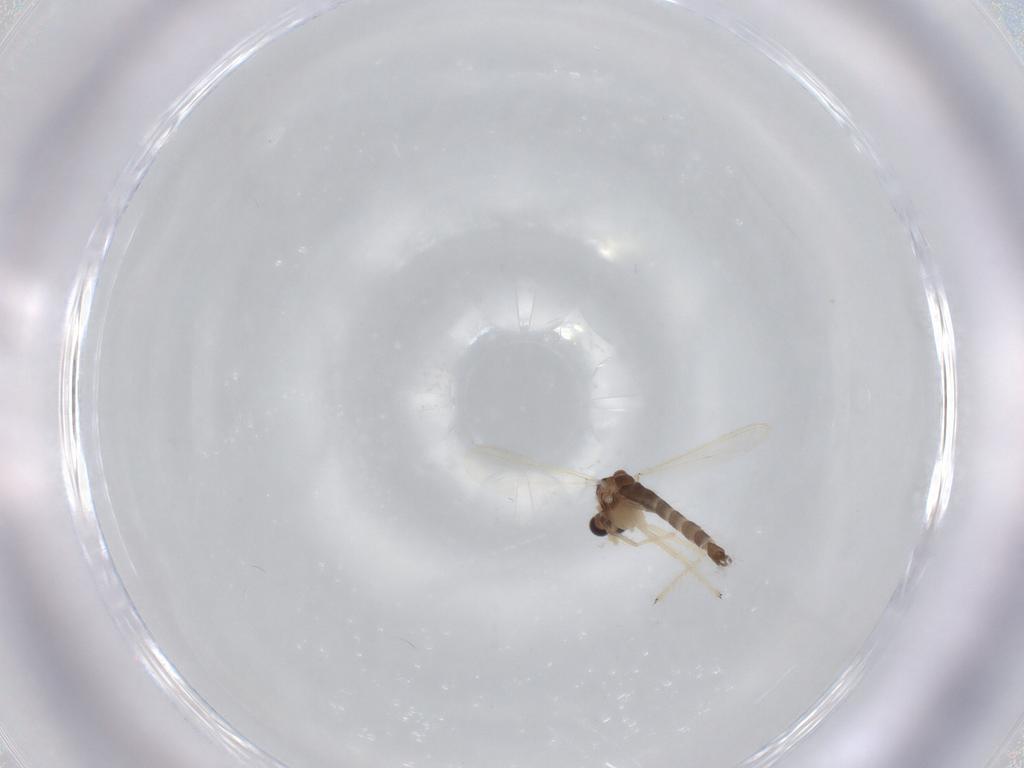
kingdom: Animalia
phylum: Arthropoda
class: Insecta
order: Diptera
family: Chironomidae
